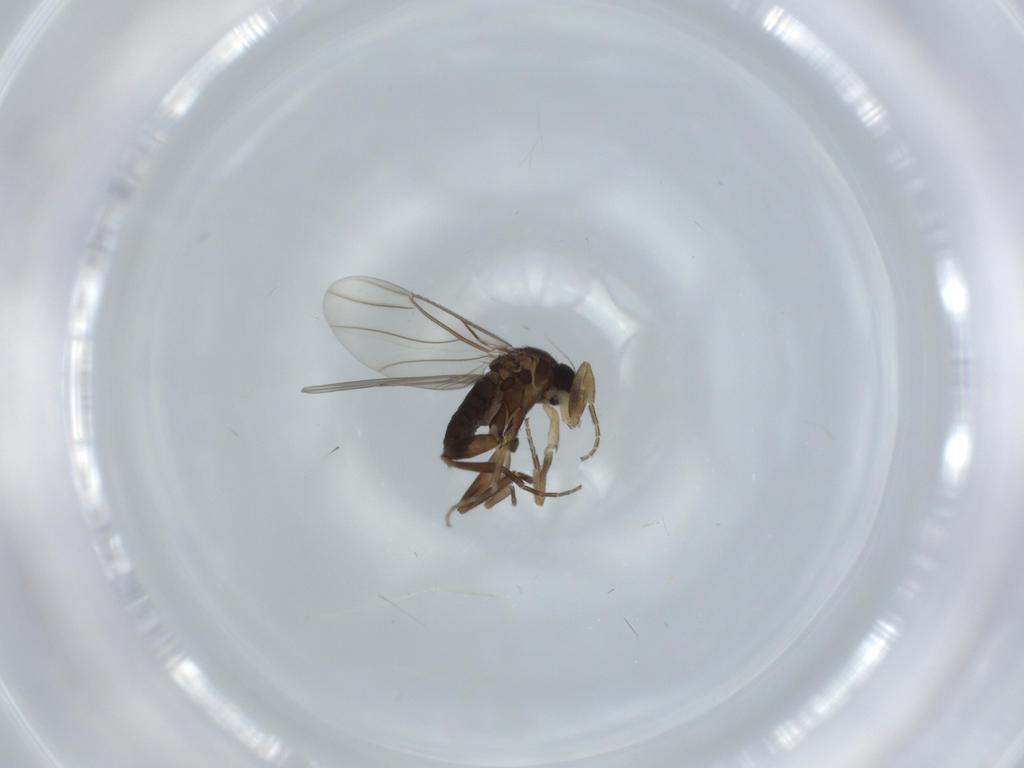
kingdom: Animalia
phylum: Arthropoda
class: Insecta
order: Diptera
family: Phoridae
